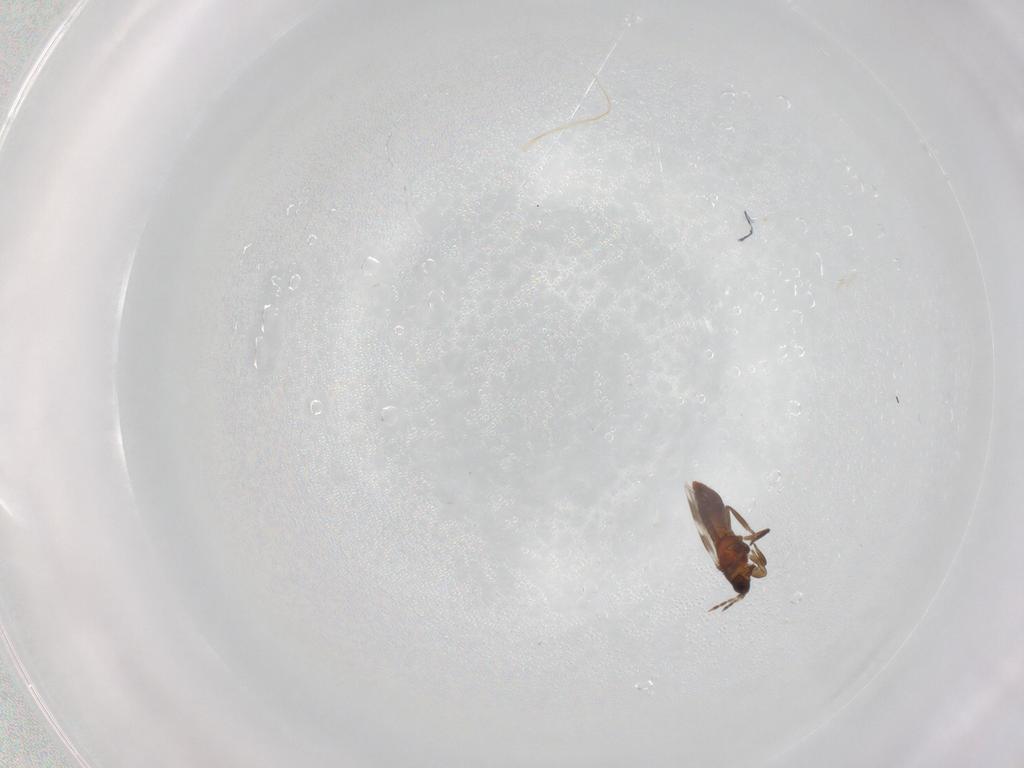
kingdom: Animalia
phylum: Arthropoda
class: Insecta
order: Thysanoptera
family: Aeolothripidae
